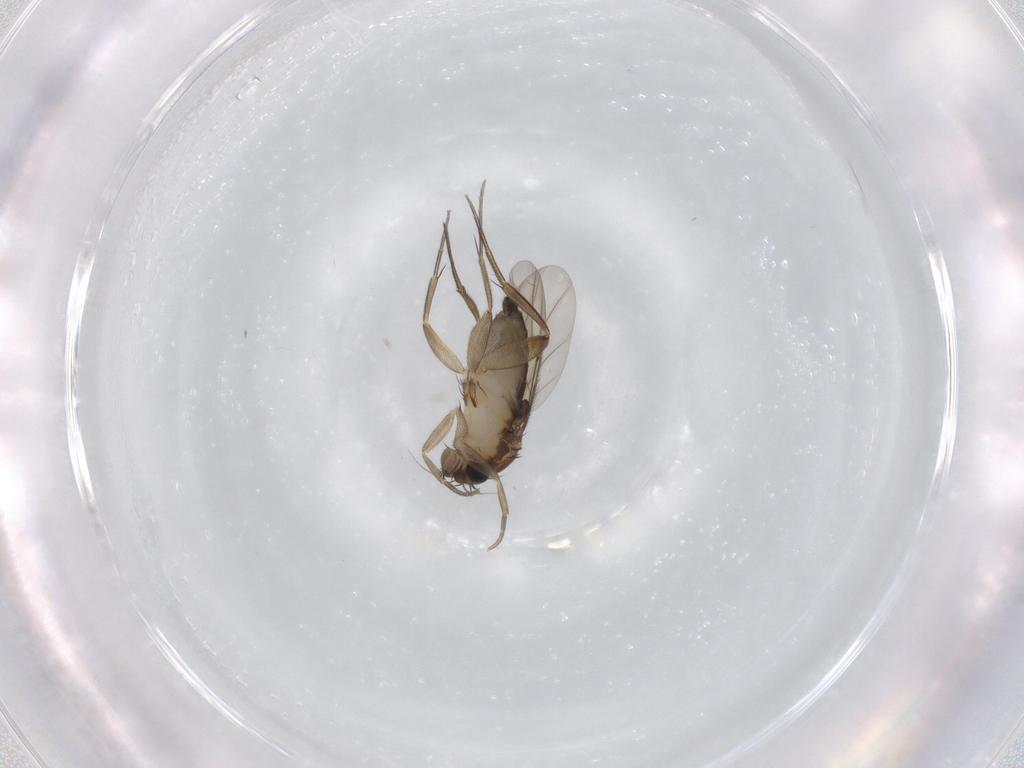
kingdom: Animalia
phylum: Arthropoda
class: Insecta
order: Diptera
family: Phoridae
